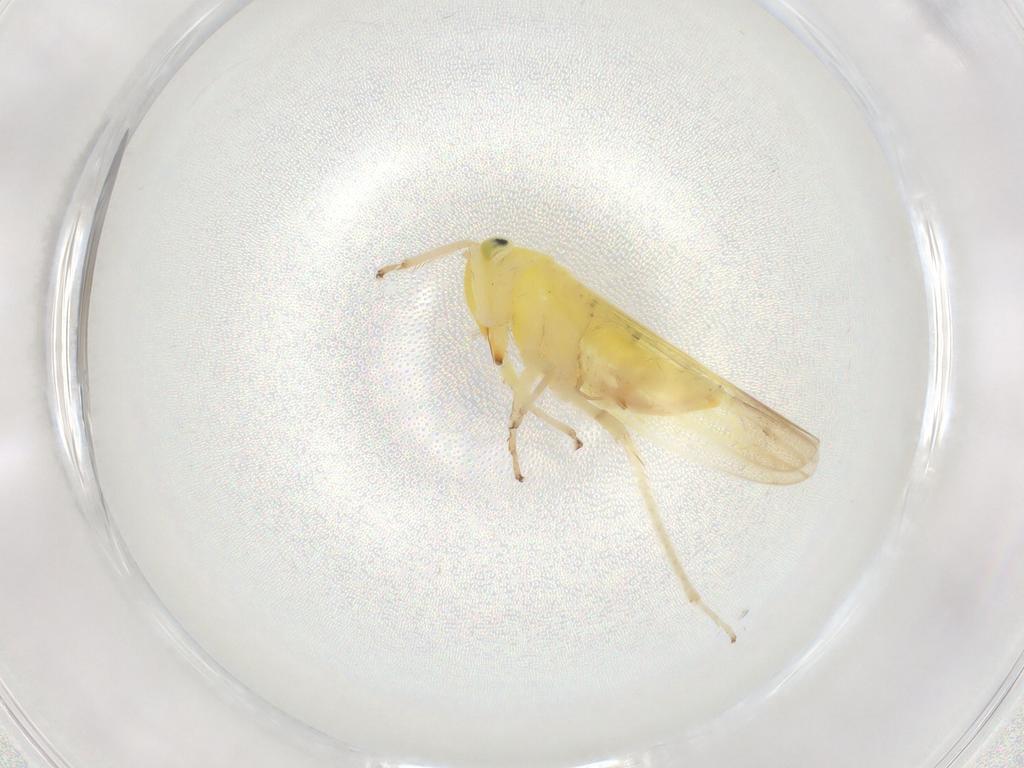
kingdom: Animalia
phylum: Arthropoda
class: Insecta
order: Hemiptera
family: Cicadellidae
